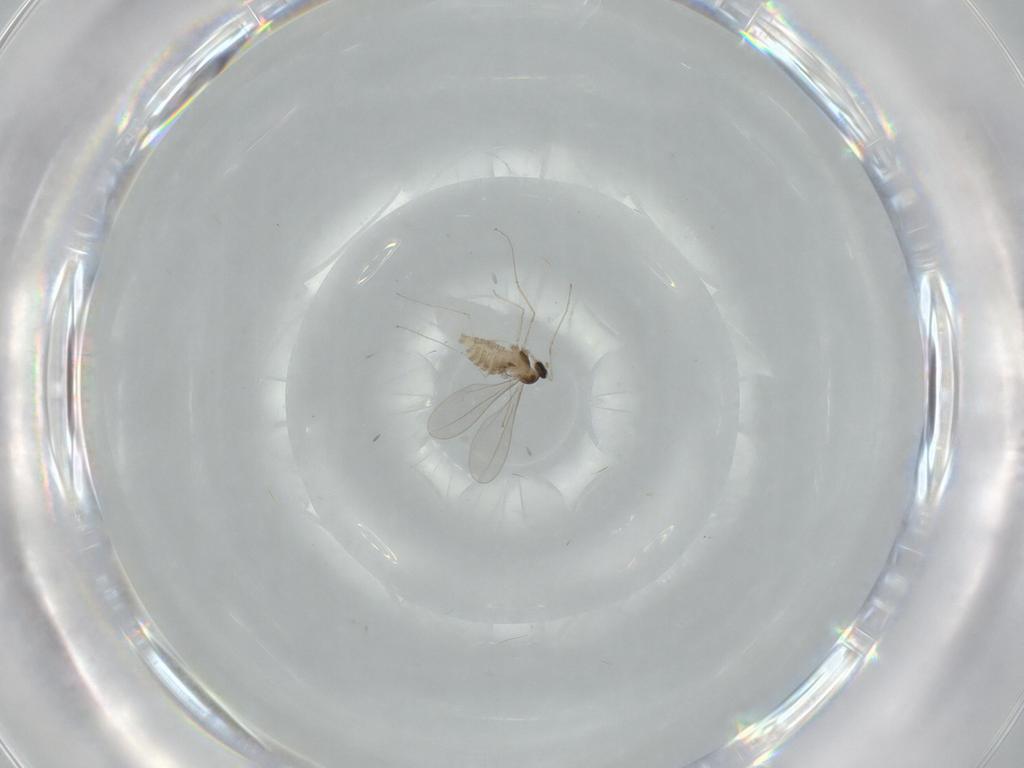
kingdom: Animalia
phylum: Arthropoda
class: Insecta
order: Diptera
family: Cecidomyiidae
